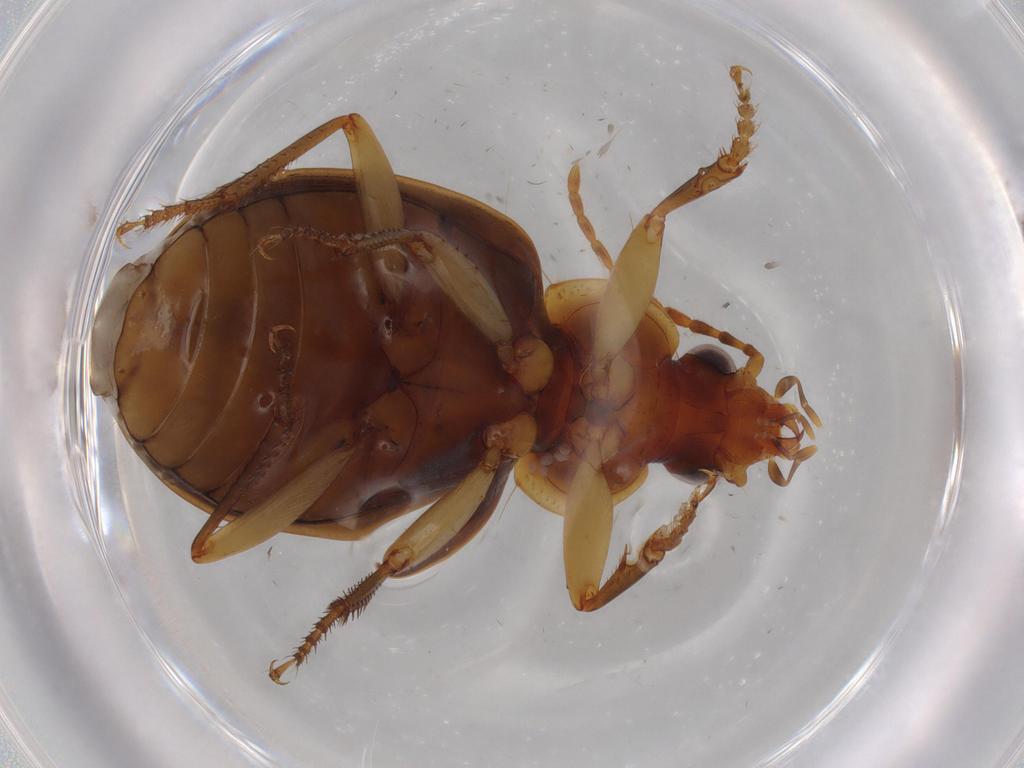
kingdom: Animalia
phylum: Arthropoda
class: Insecta
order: Coleoptera
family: Carabidae
